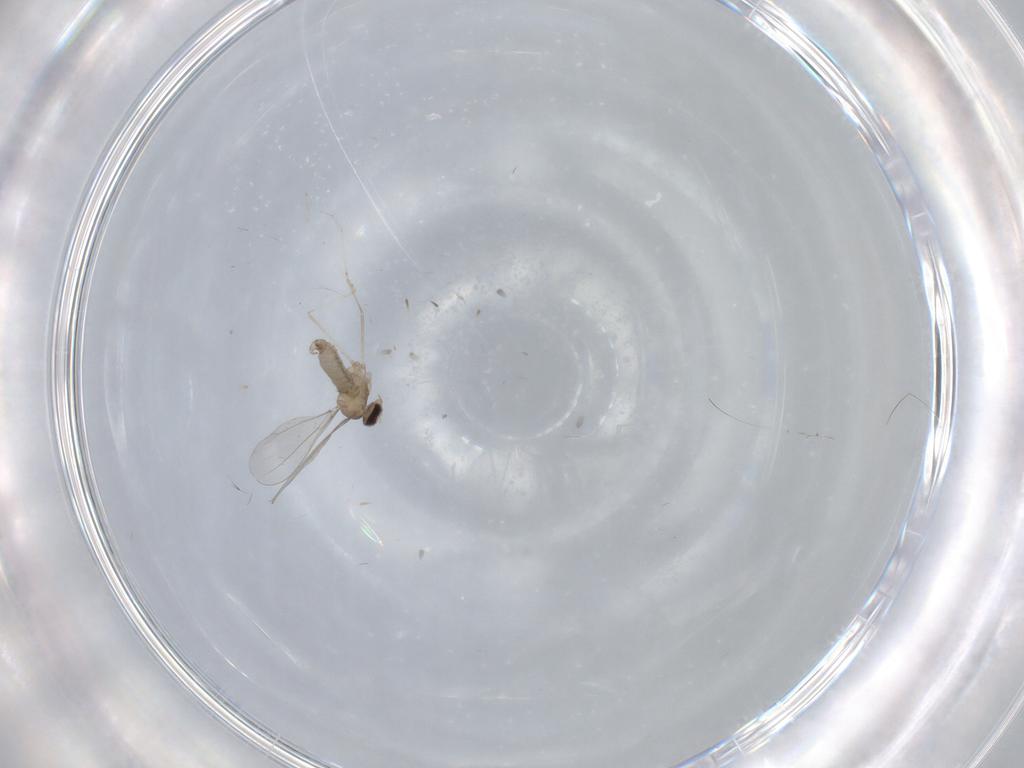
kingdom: Animalia
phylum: Arthropoda
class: Insecta
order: Diptera
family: Cecidomyiidae
